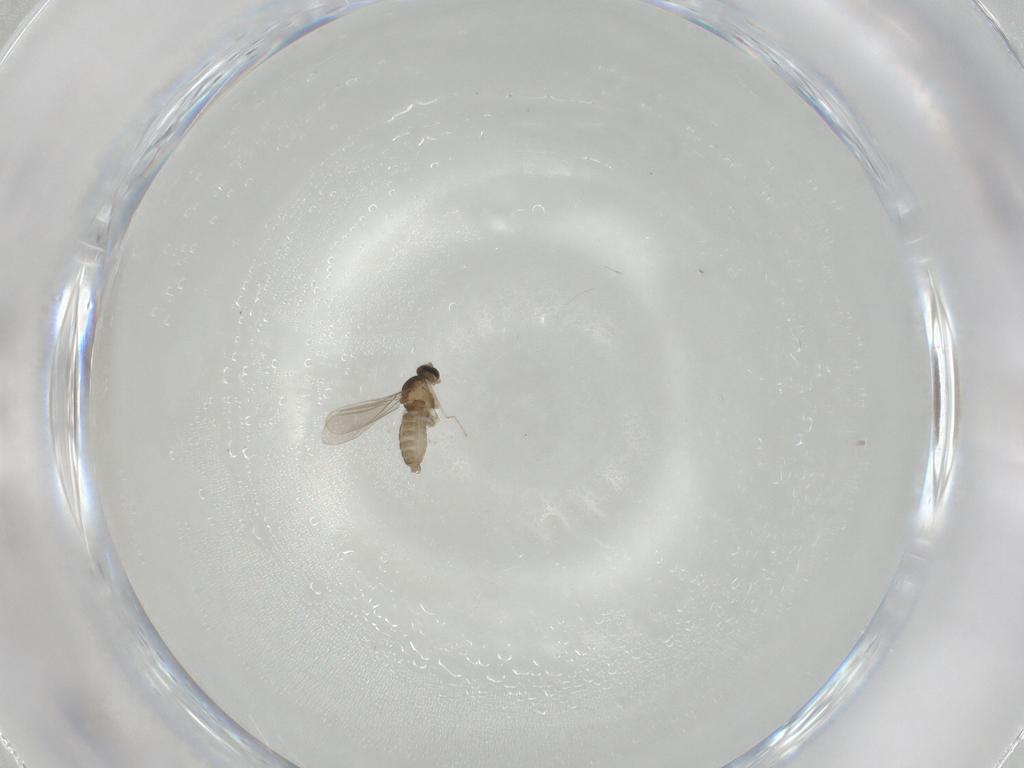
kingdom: Animalia
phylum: Arthropoda
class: Insecta
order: Diptera
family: Cecidomyiidae
